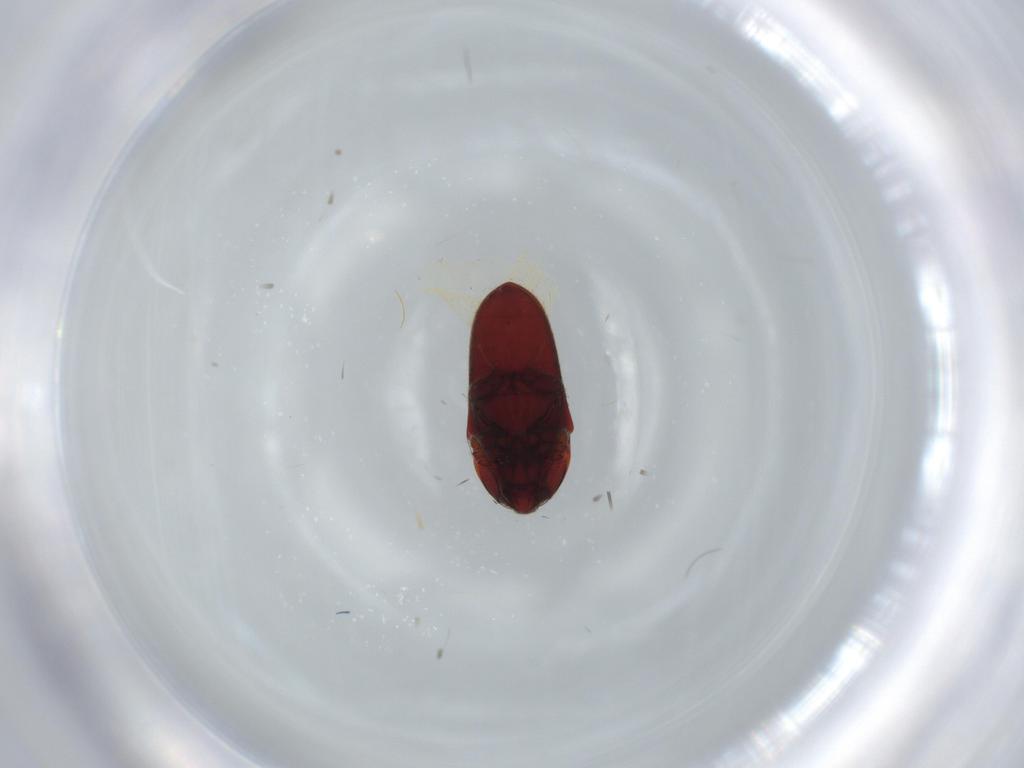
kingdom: Animalia
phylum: Arthropoda
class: Insecta
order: Coleoptera
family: Throscidae
